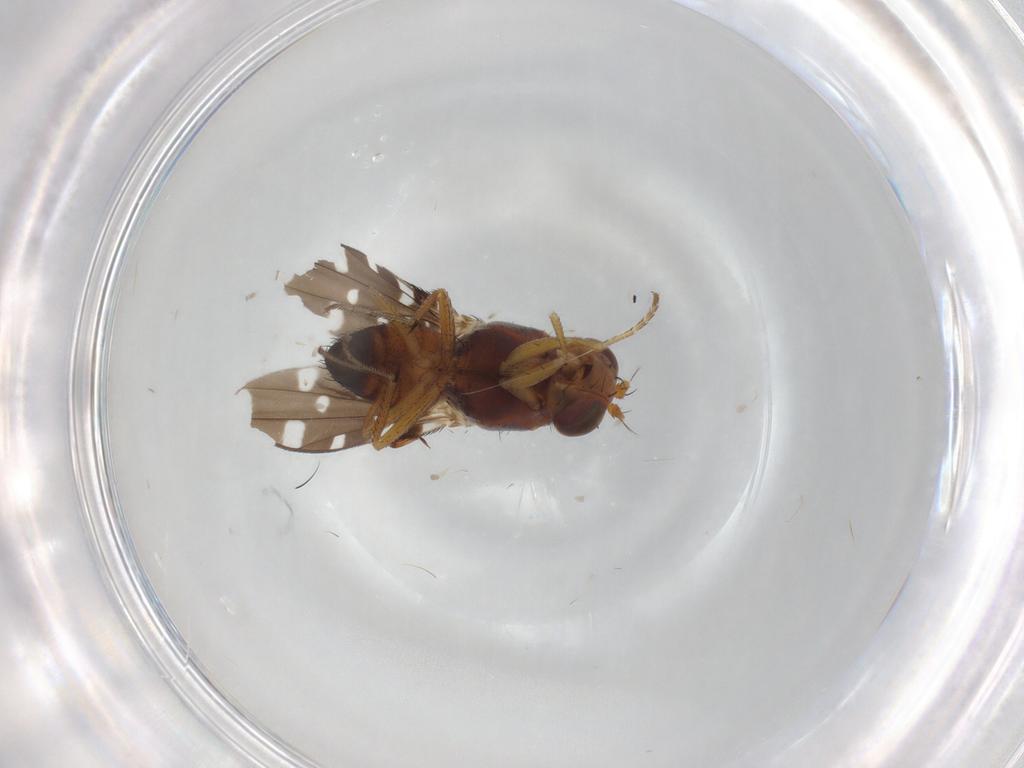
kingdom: Animalia
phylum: Arthropoda
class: Insecta
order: Diptera
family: Ephydridae
